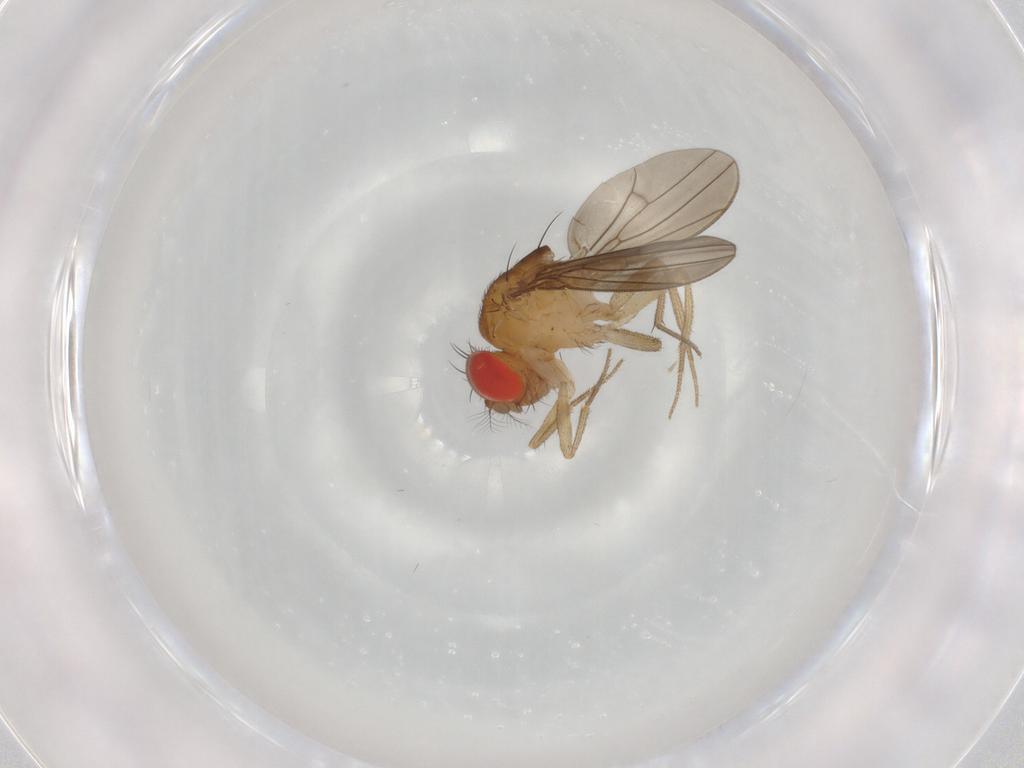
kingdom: Animalia
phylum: Arthropoda
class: Insecta
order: Diptera
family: Drosophilidae
